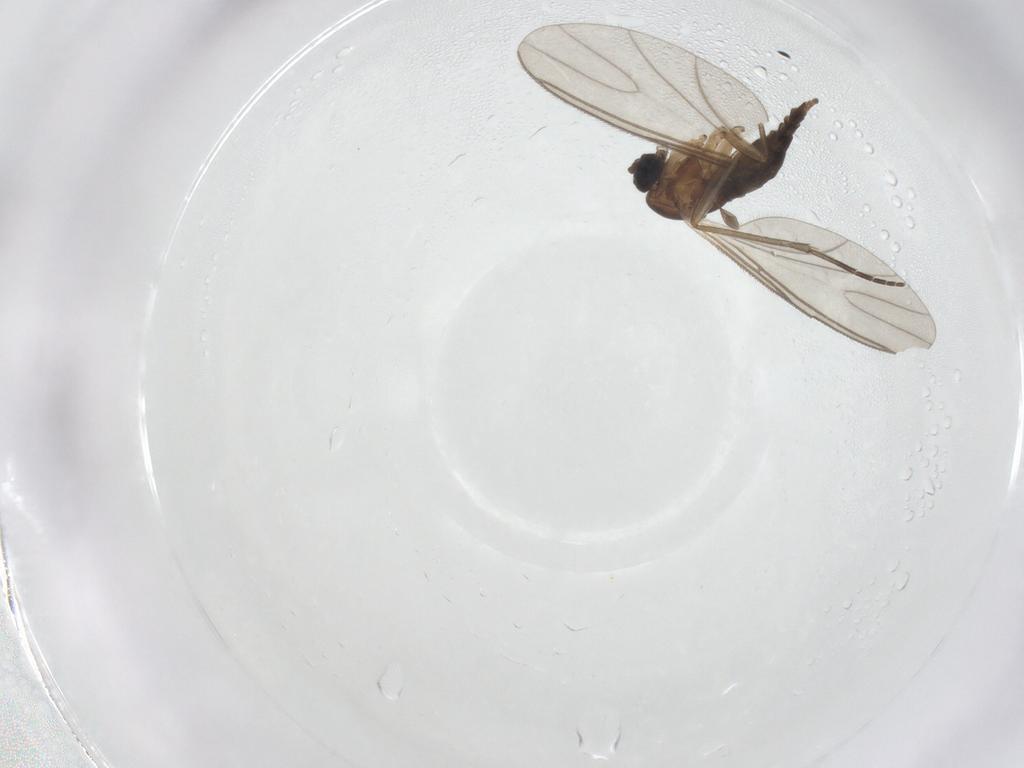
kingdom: Animalia
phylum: Arthropoda
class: Insecta
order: Diptera
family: Sciaridae
